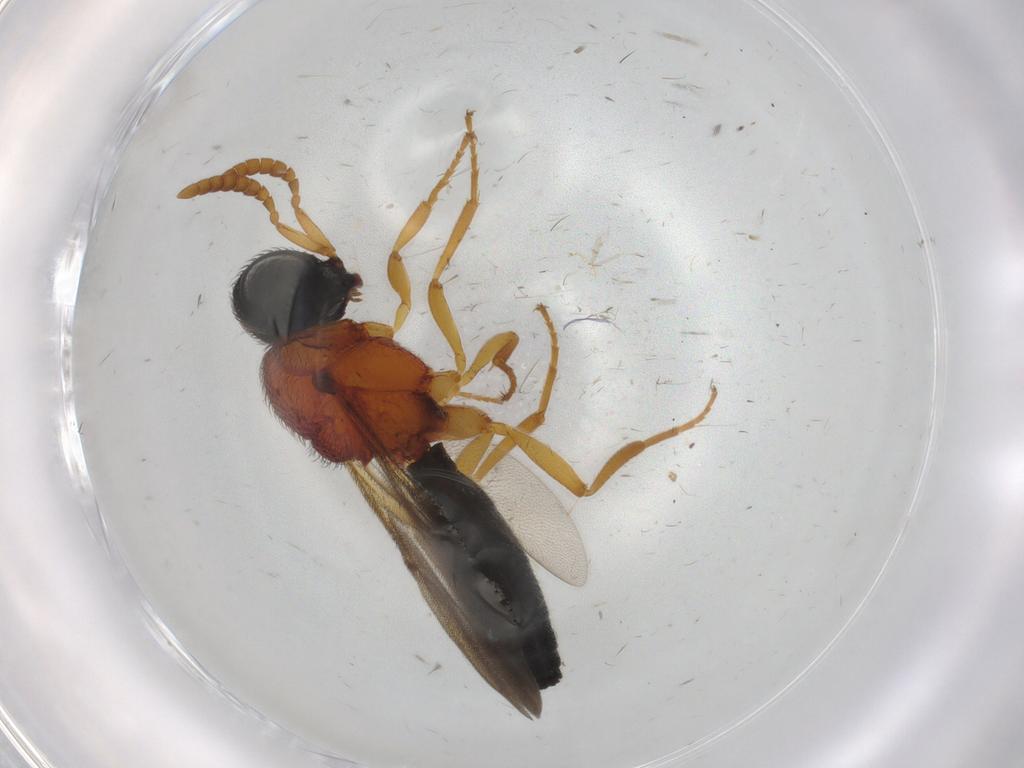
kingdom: Animalia
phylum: Arthropoda
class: Insecta
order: Hymenoptera
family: Scelionidae
